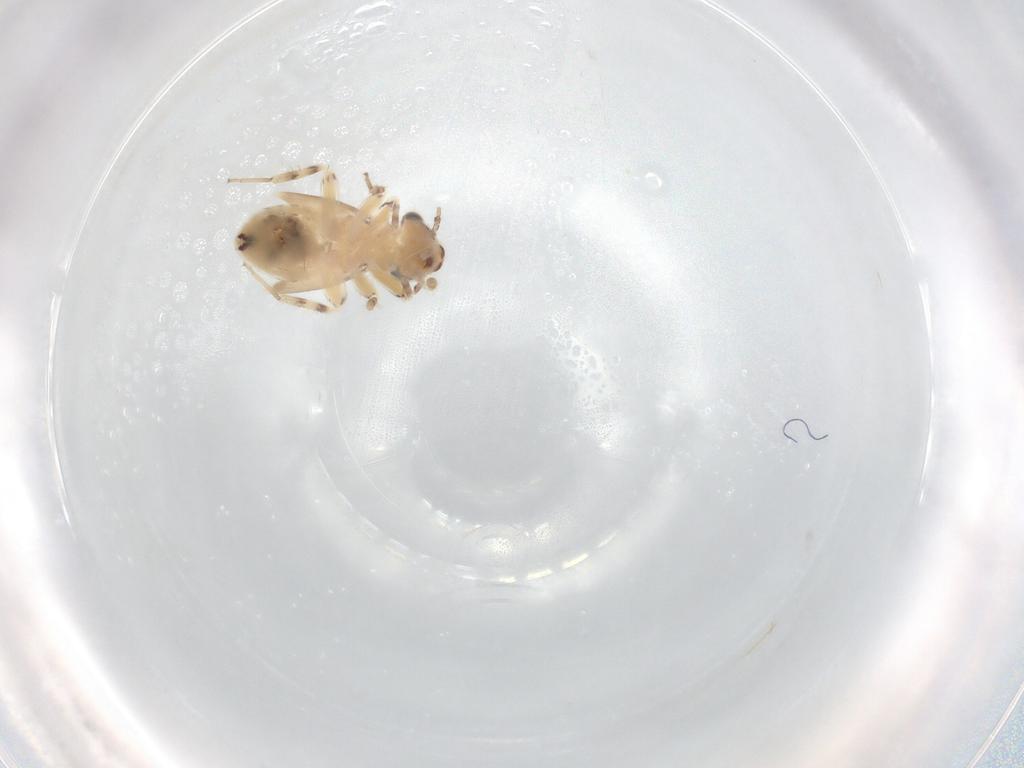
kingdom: Animalia
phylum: Arthropoda
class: Insecta
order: Psocodea
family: Lepidopsocidae
